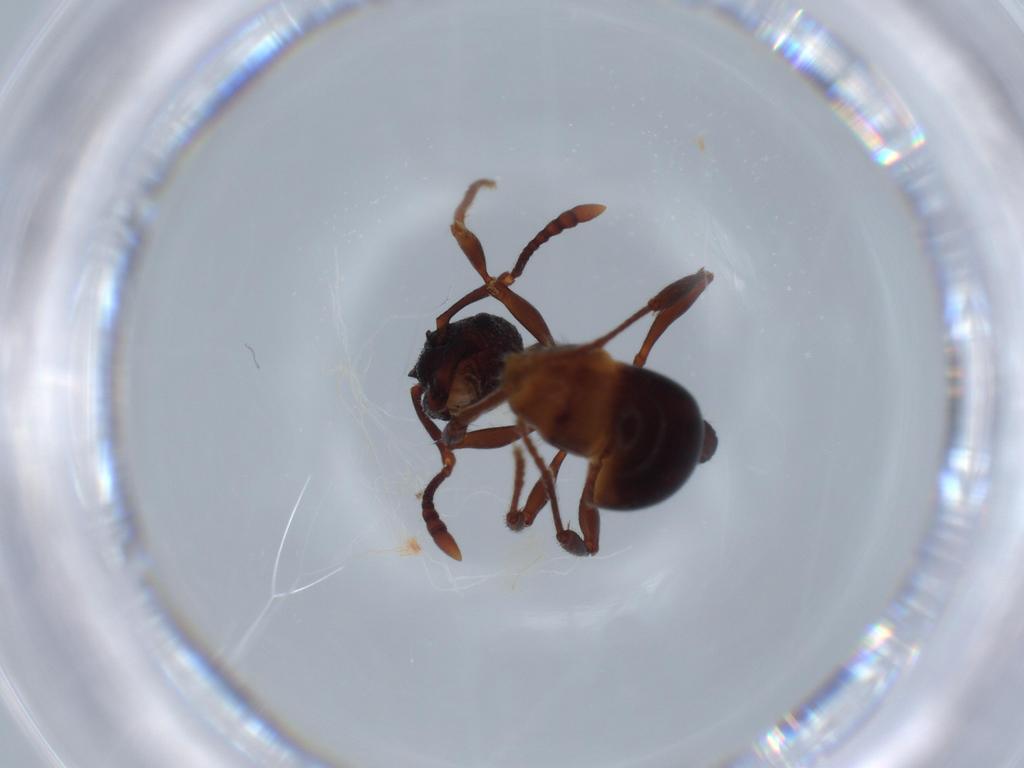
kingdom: Animalia
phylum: Arthropoda
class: Insecta
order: Hymenoptera
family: Formicidae
